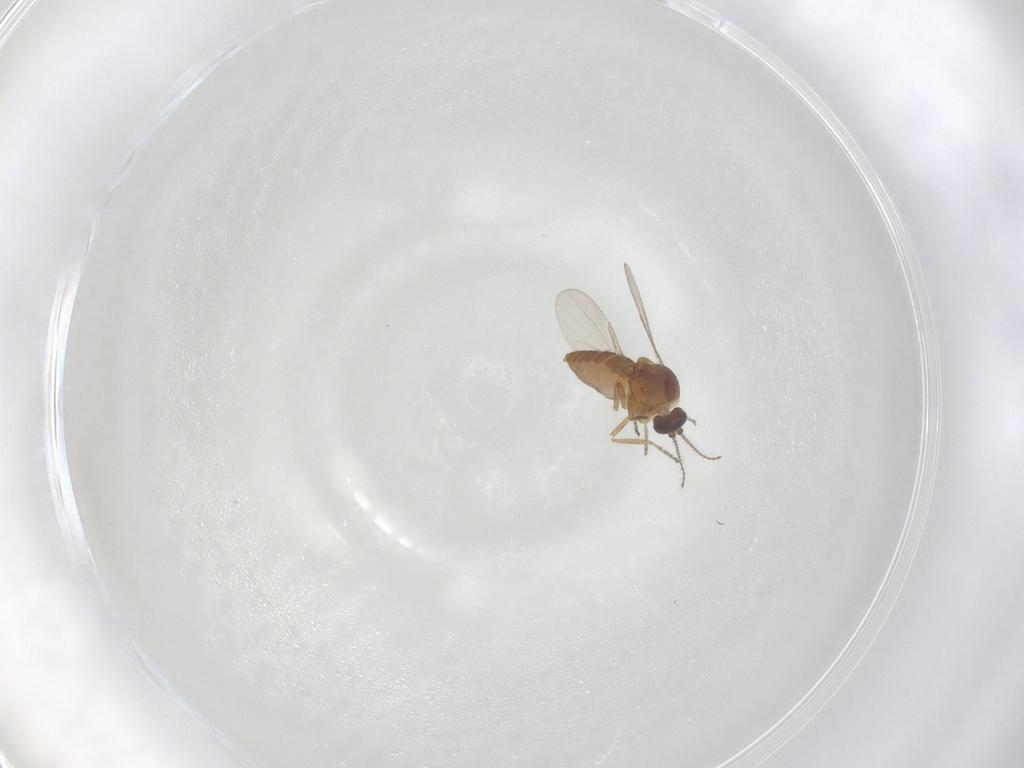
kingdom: Animalia
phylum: Arthropoda
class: Insecta
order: Diptera
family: Ceratopogonidae
